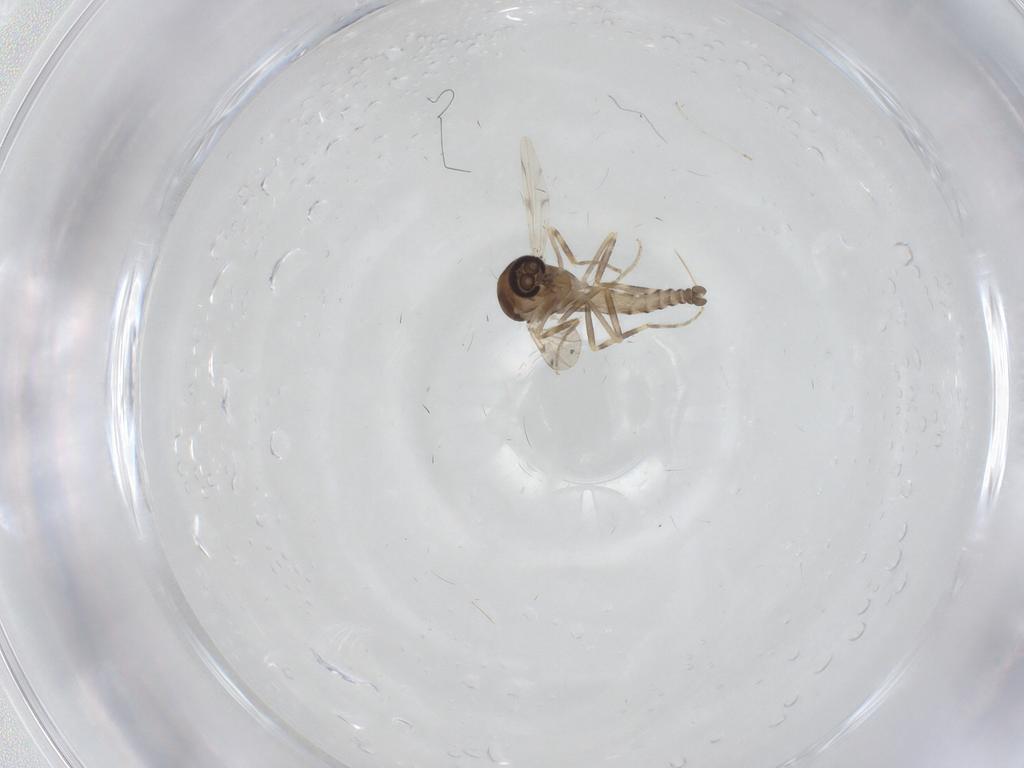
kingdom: Animalia
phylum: Arthropoda
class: Insecta
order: Diptera
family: Ceratopogonidae
